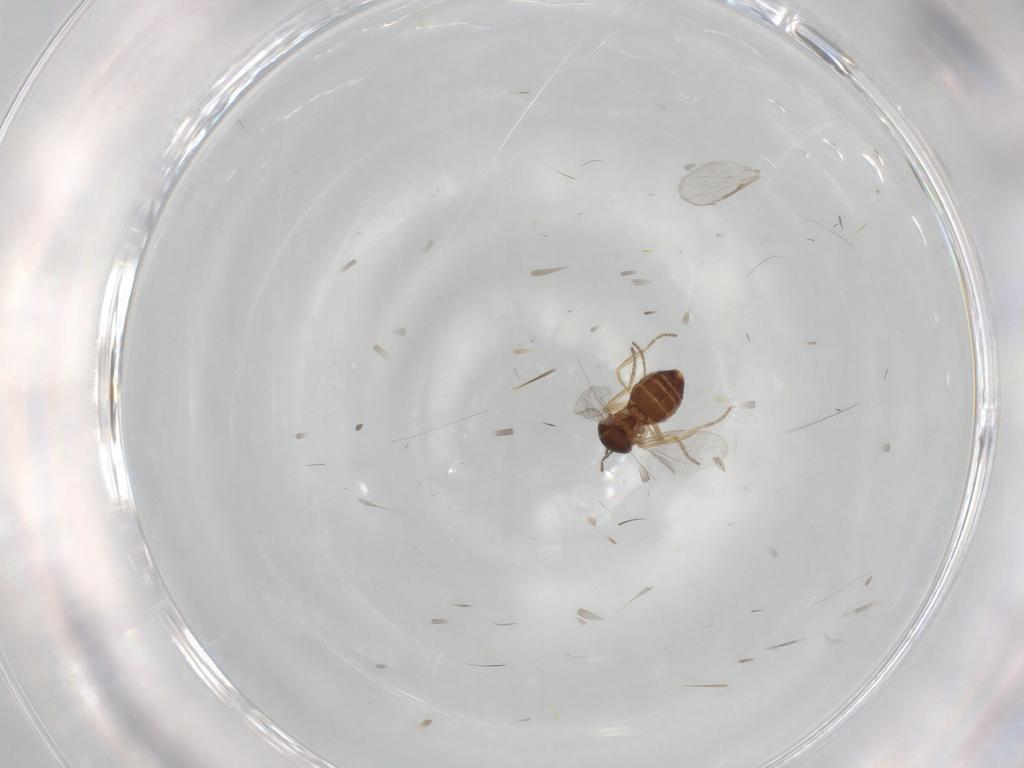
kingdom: Animalia
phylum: Arthropoda
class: Insecta
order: Diptera
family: Ceratopogonidae
